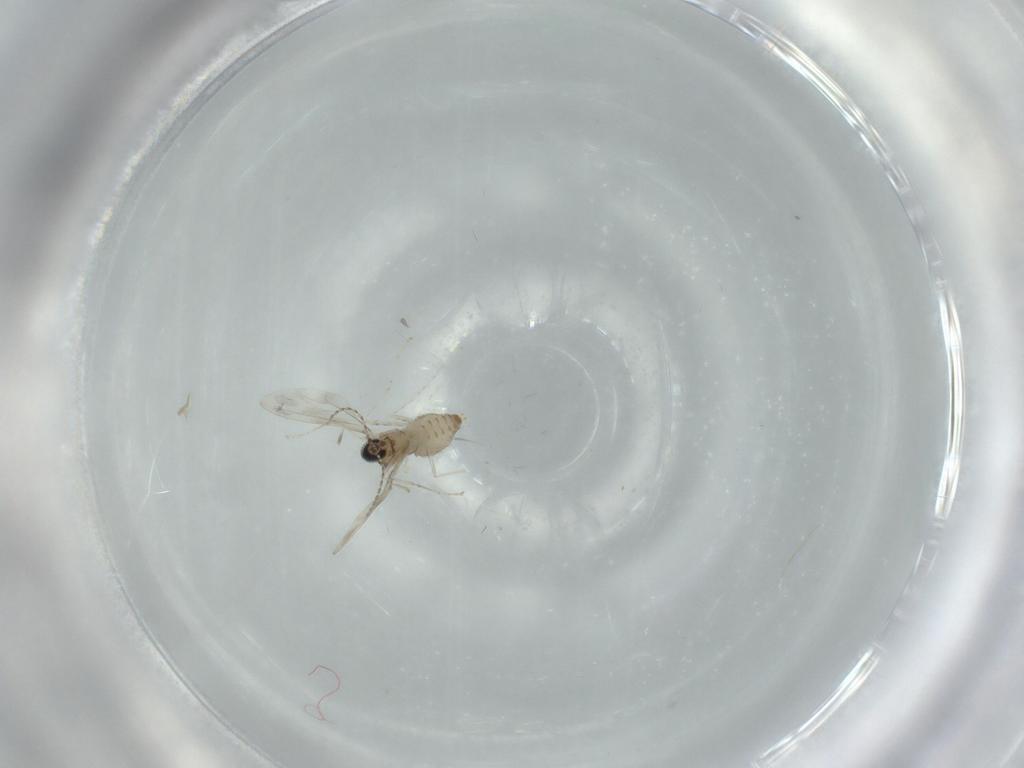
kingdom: Animalia
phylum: Arthropoda
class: Insecta
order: Diptera
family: Cecidomyiidae
